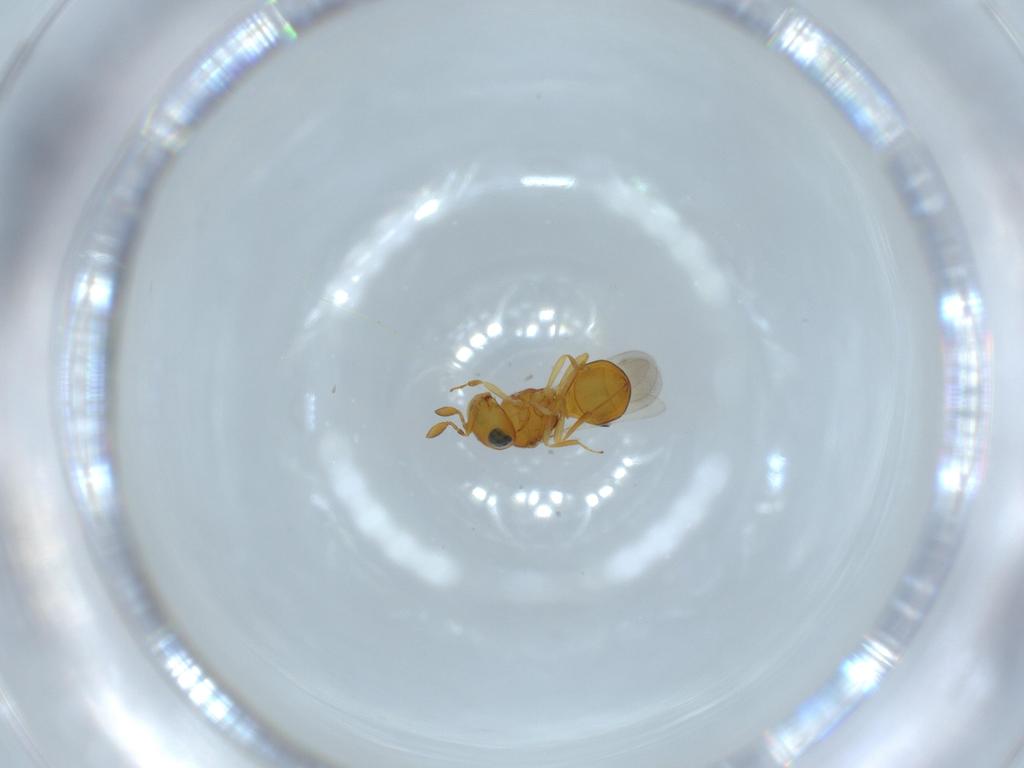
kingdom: Animalia
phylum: Arthropoda
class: Insecta
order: Hymenoptera
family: Scelionidae
